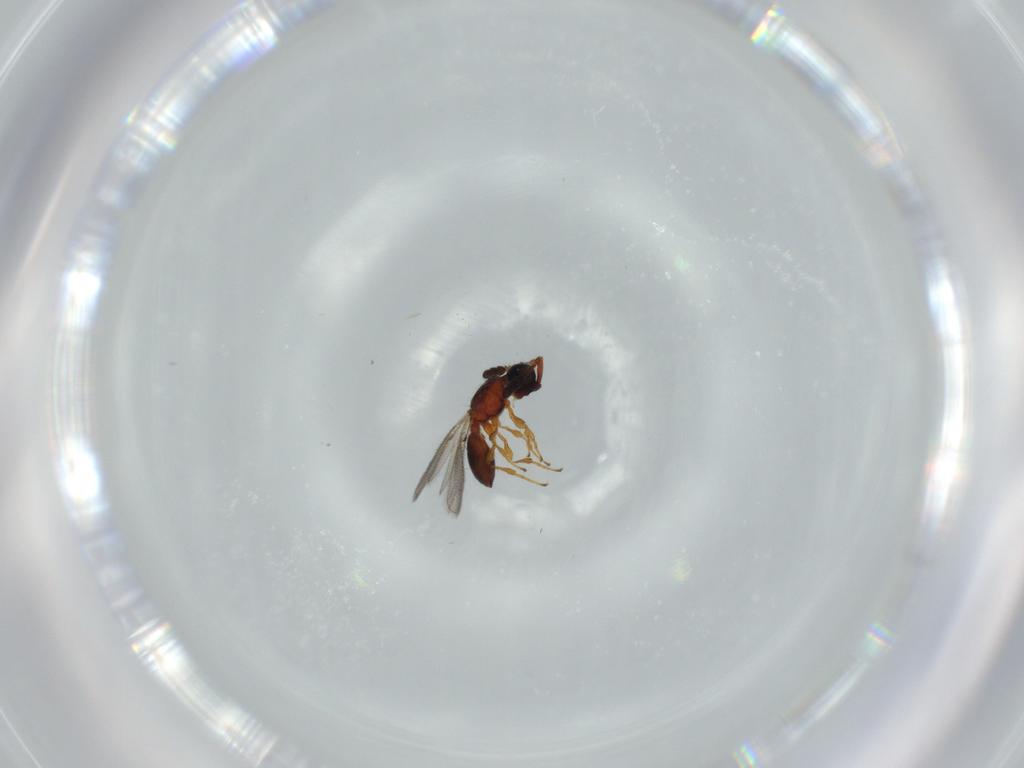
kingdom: Animalia
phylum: Arthropoda
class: Insecta
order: Hymenoptera
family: Diapriidae
